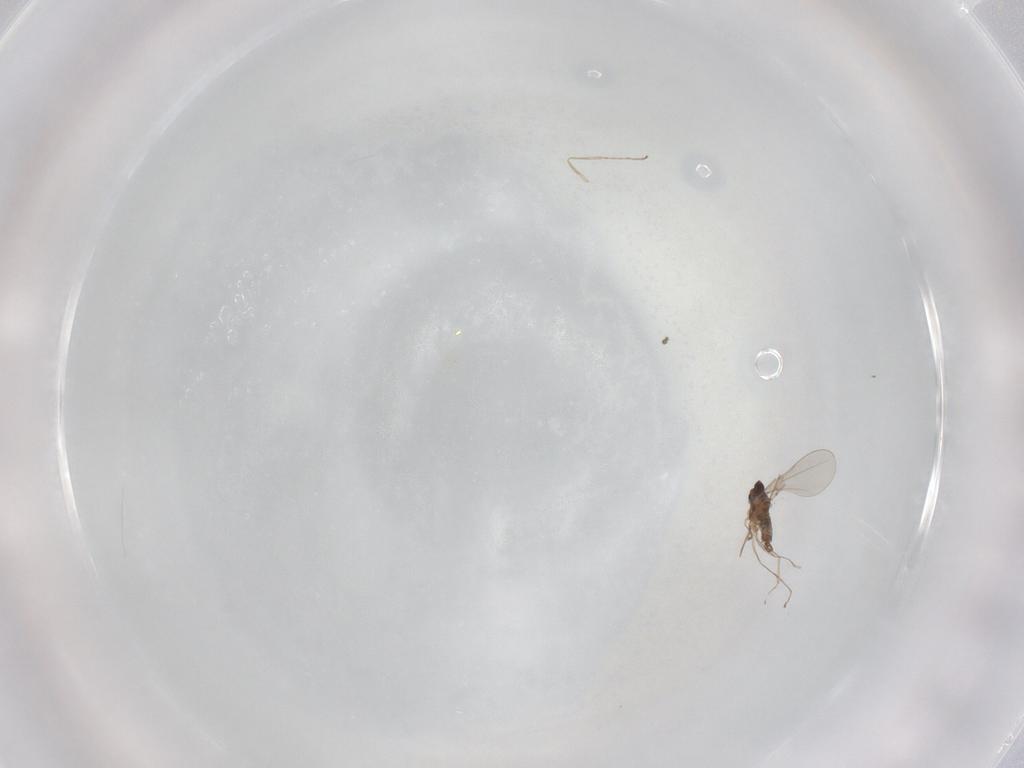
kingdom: Animalia
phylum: Arthropoda
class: Insecta
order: Diptera
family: Cecidomyiidae
